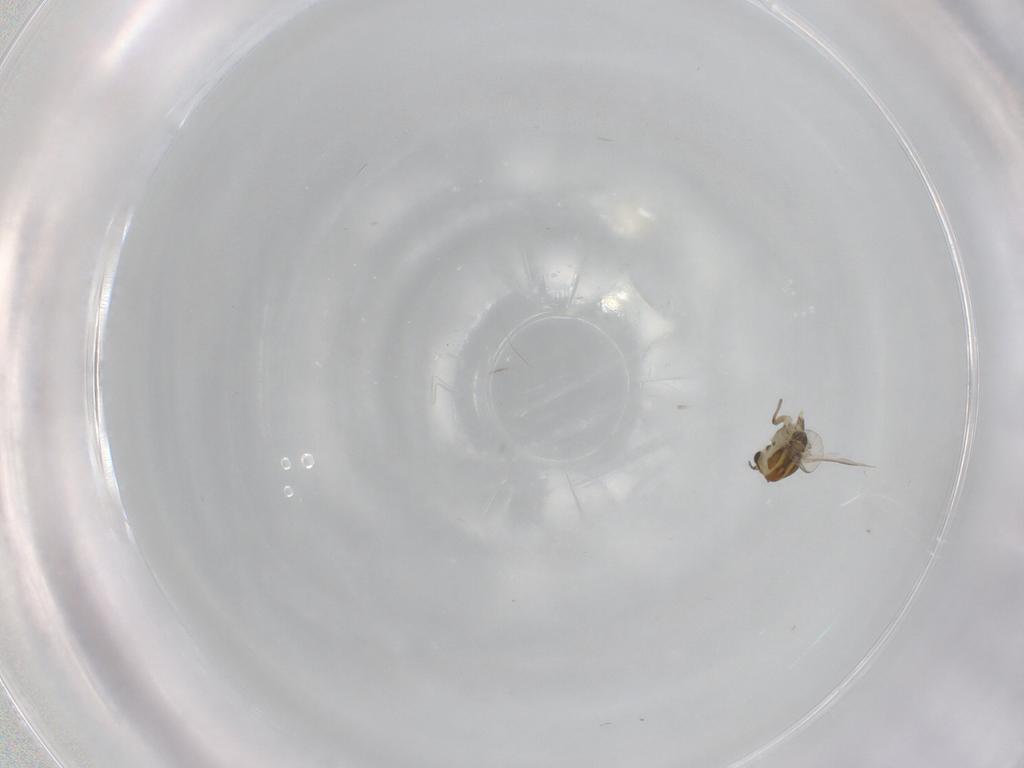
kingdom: Animalia
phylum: Arthropoda
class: Insecta
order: Diptera
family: Chironomidae
